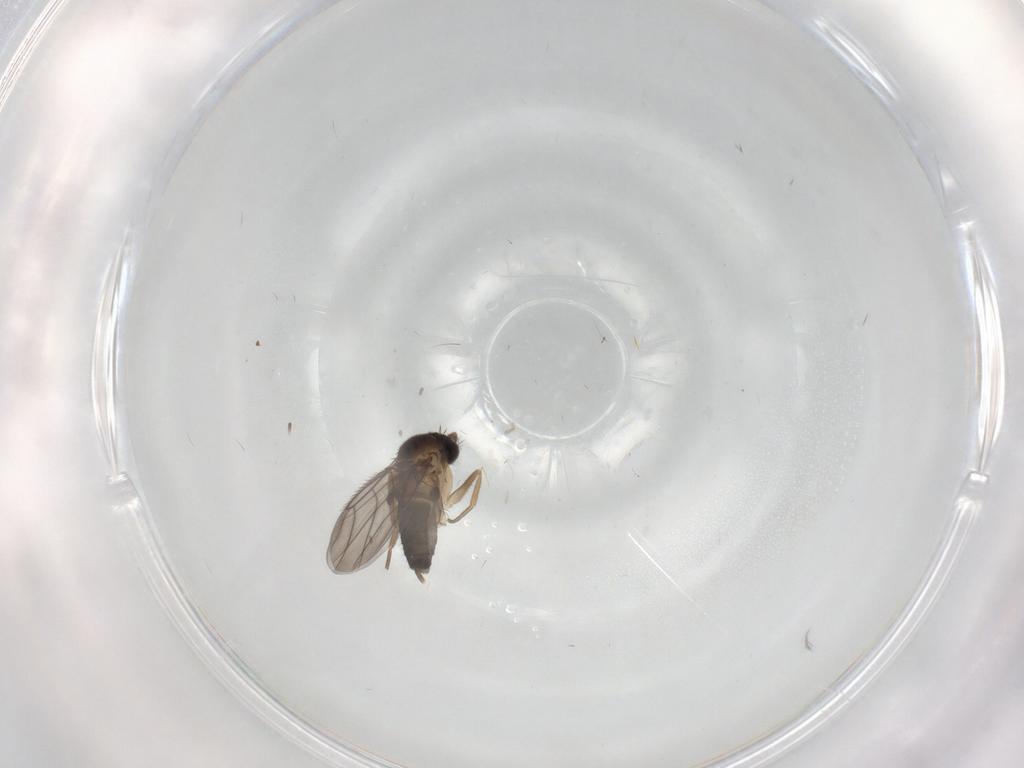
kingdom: Animalia
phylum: Arthropoda
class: Insecta
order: Diptera
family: Phoridae
